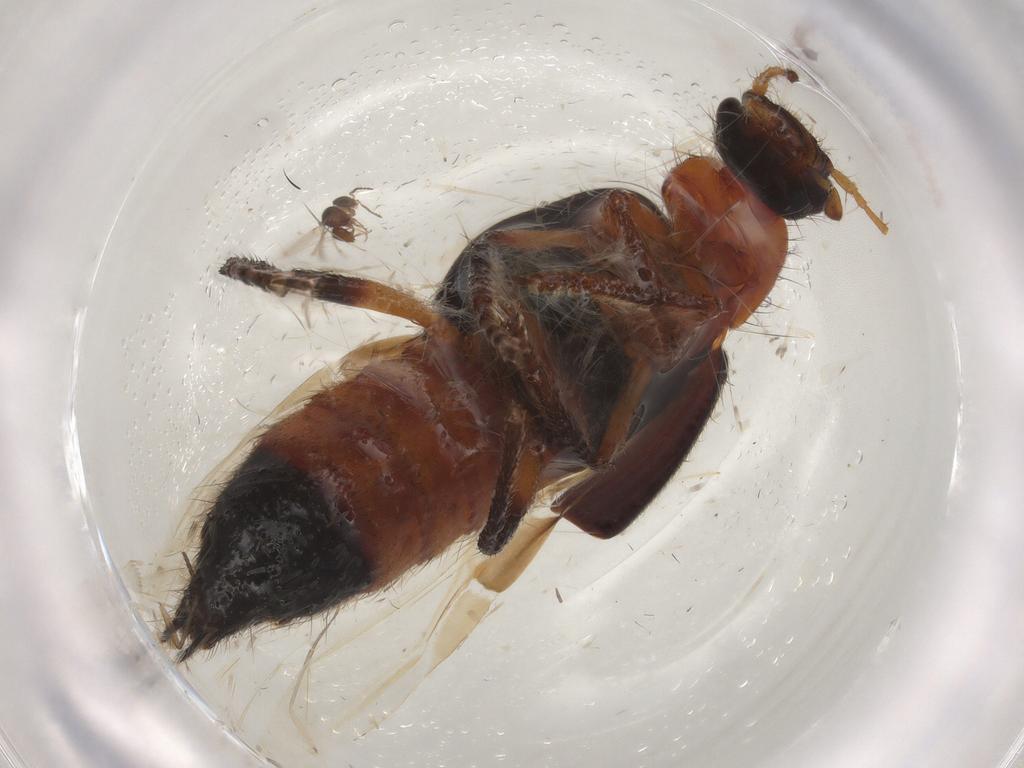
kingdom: Animalia
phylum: Arthropoda
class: Insecta
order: Coleoptera
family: Staphylinidae
